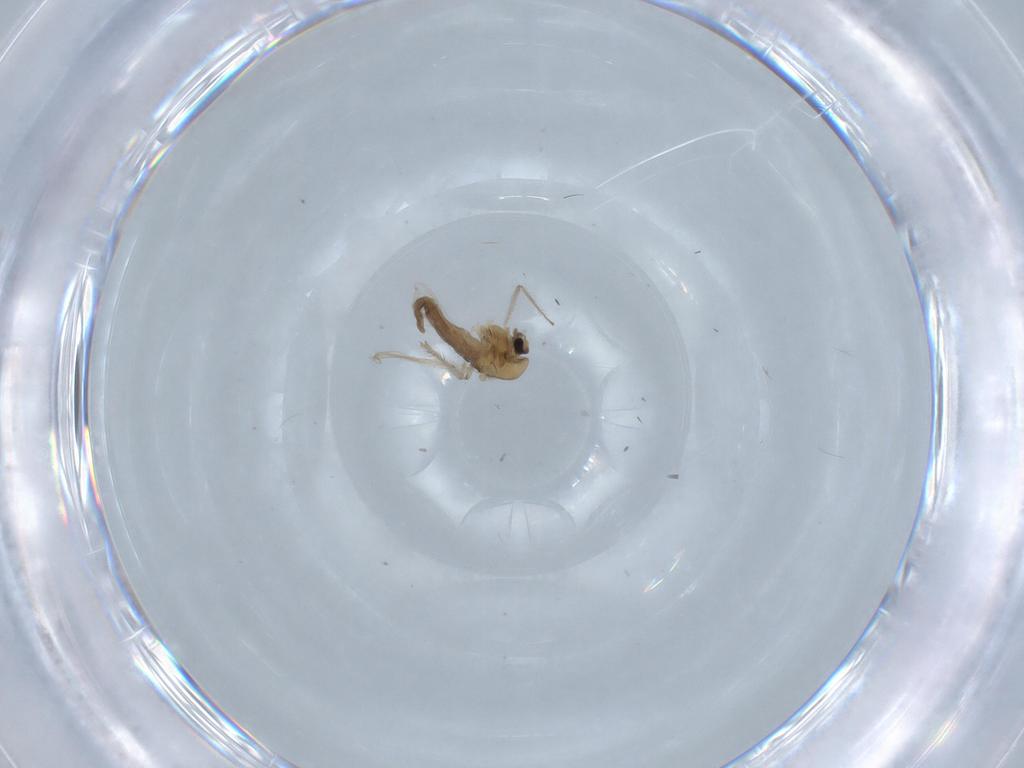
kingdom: Animalia
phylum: Arthropoda
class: Insecta
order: Diptera
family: Chironomidae
